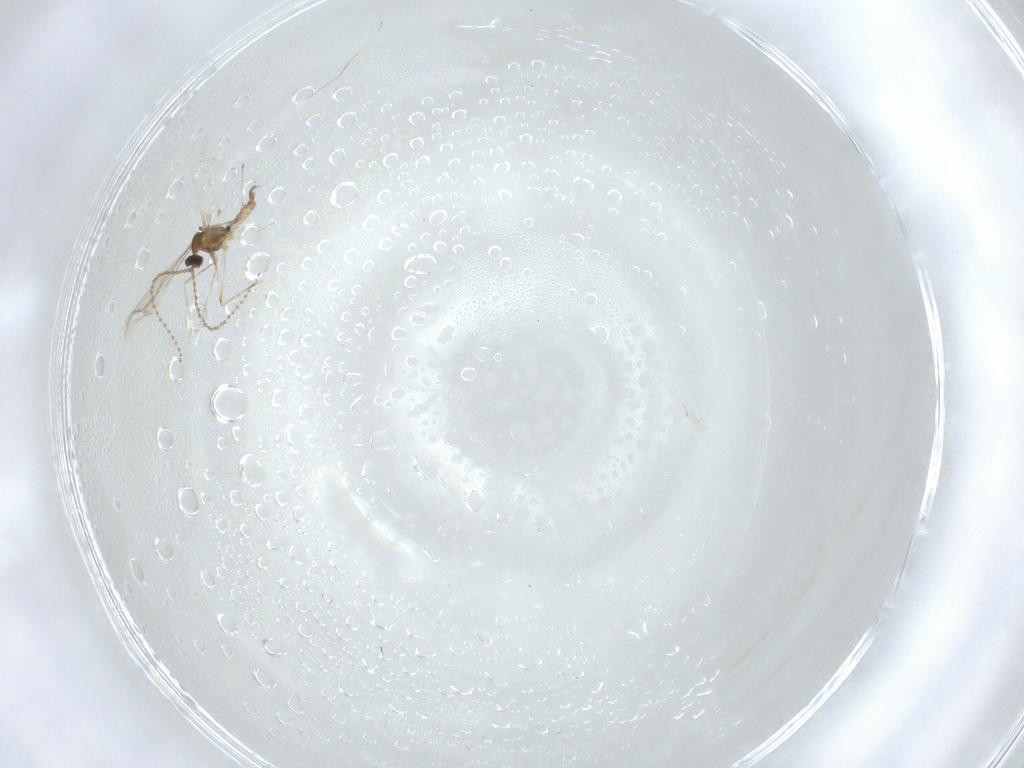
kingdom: Animalia
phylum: Arthropoda
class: Insecta
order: Diptera
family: Cecidomyiidae
